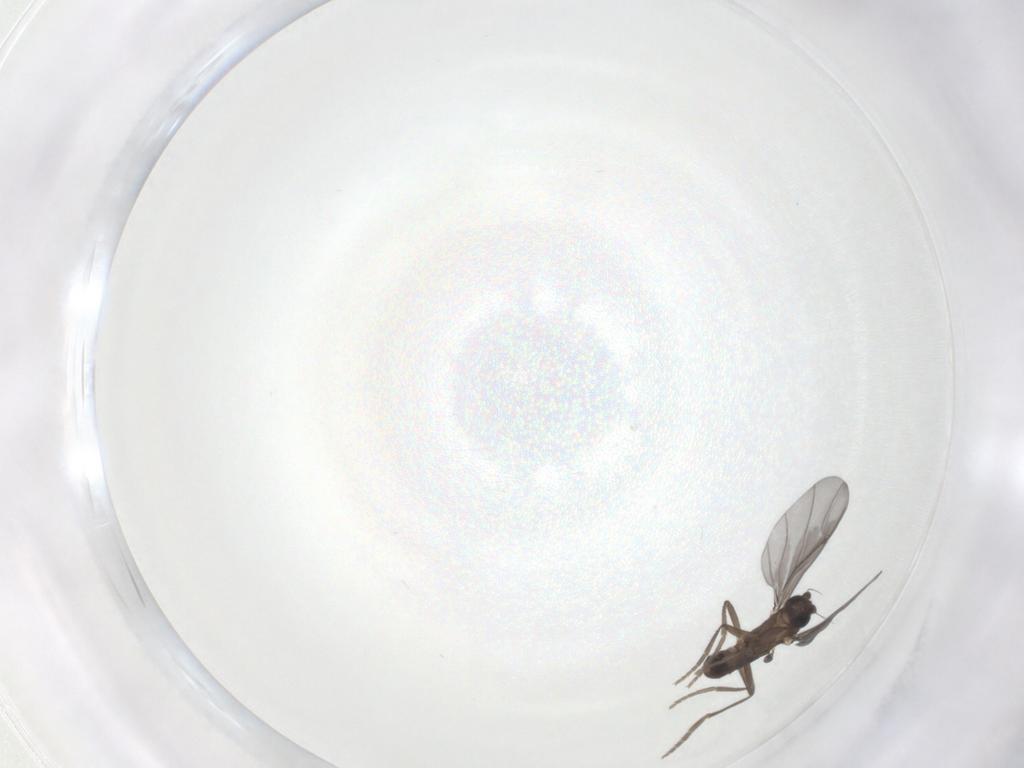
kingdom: Animalia
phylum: Arthropoda
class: Insecta
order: Diptera
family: Phoridae
